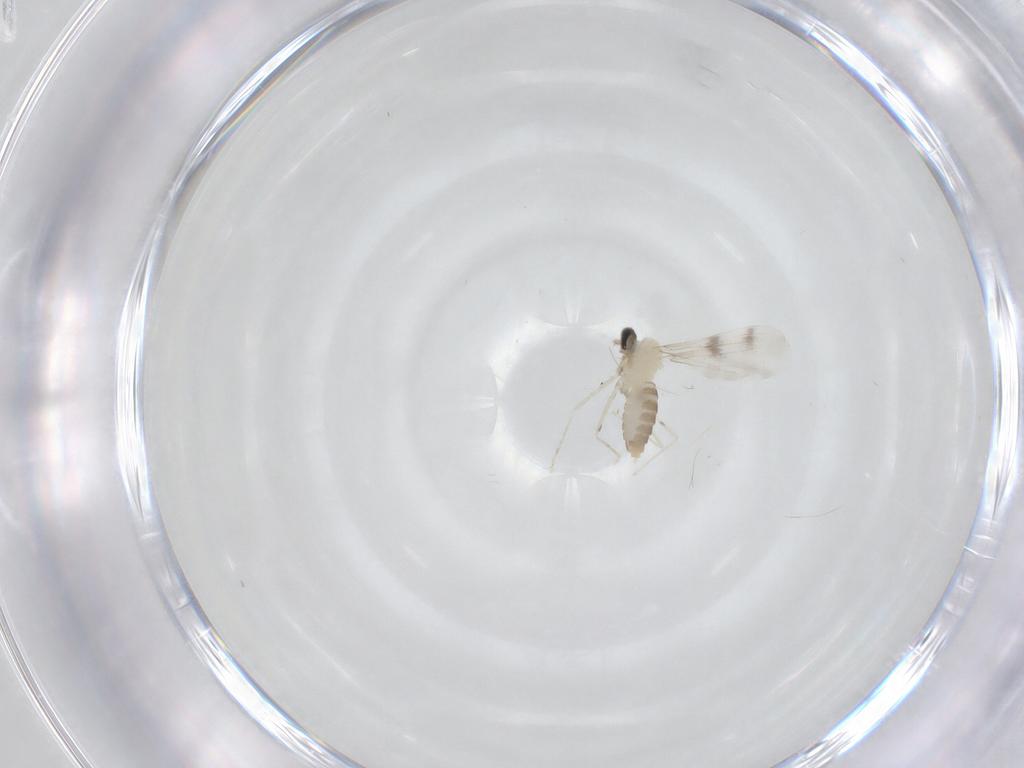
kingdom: Animalia
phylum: Arthropoda
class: Insecta
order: Diptera
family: Cecidomyiidae
